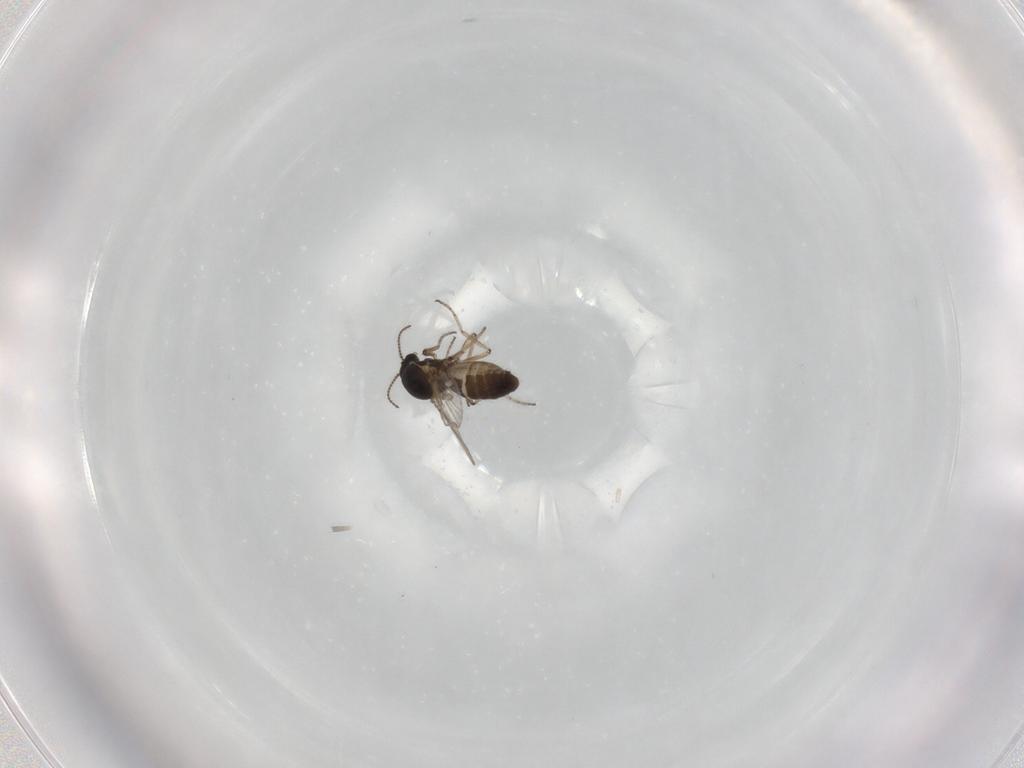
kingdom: Animalia
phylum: Arthropoda
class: Insecta
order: Diptera
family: Ceratopogonidae
